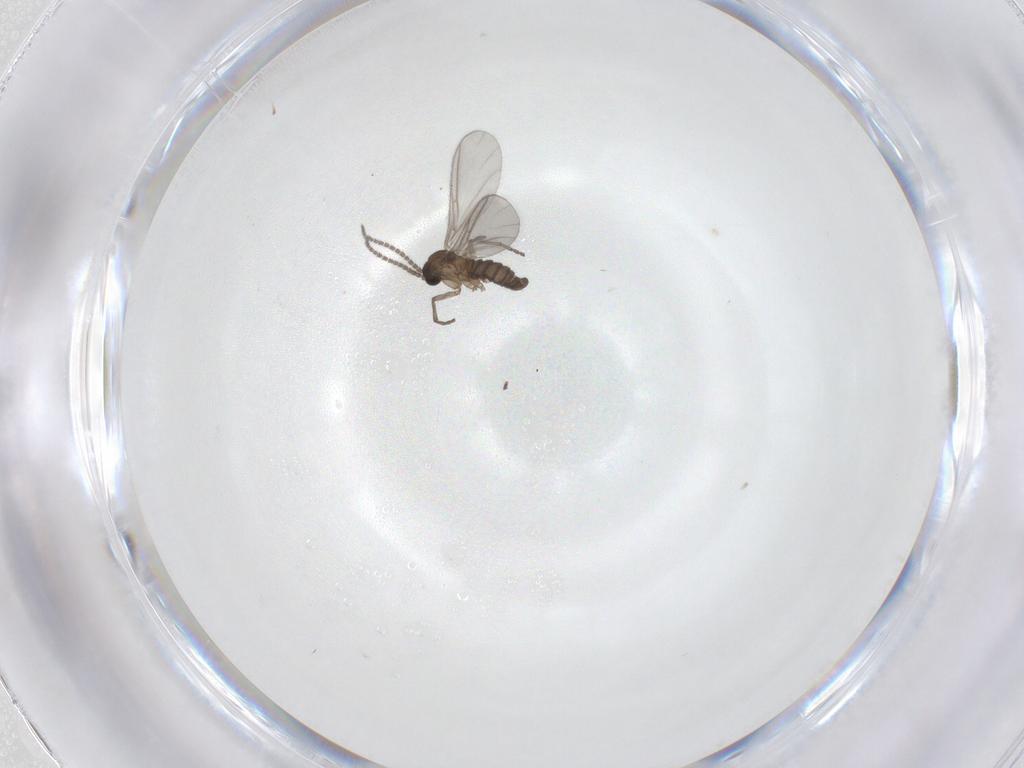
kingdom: Animalia
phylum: Arthropoda
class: Insecta
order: Diptera
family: Sciaridae
